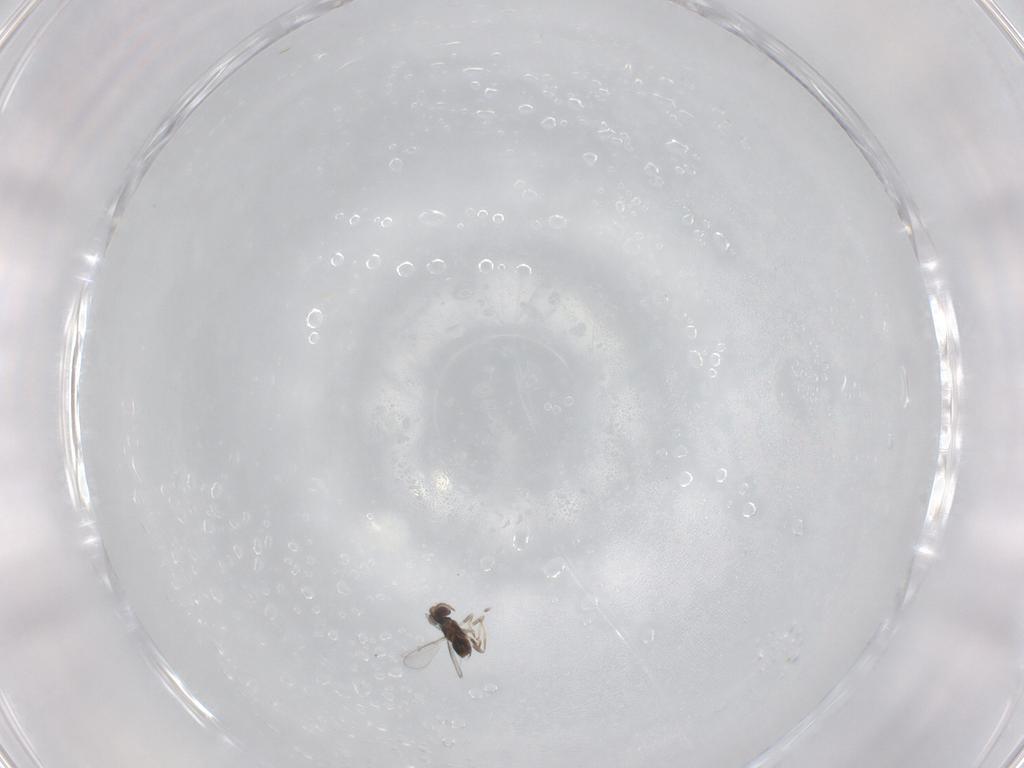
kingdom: Animalia
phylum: Arthropoda
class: Insecta
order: Hymenoptera
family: Aphelinidae
